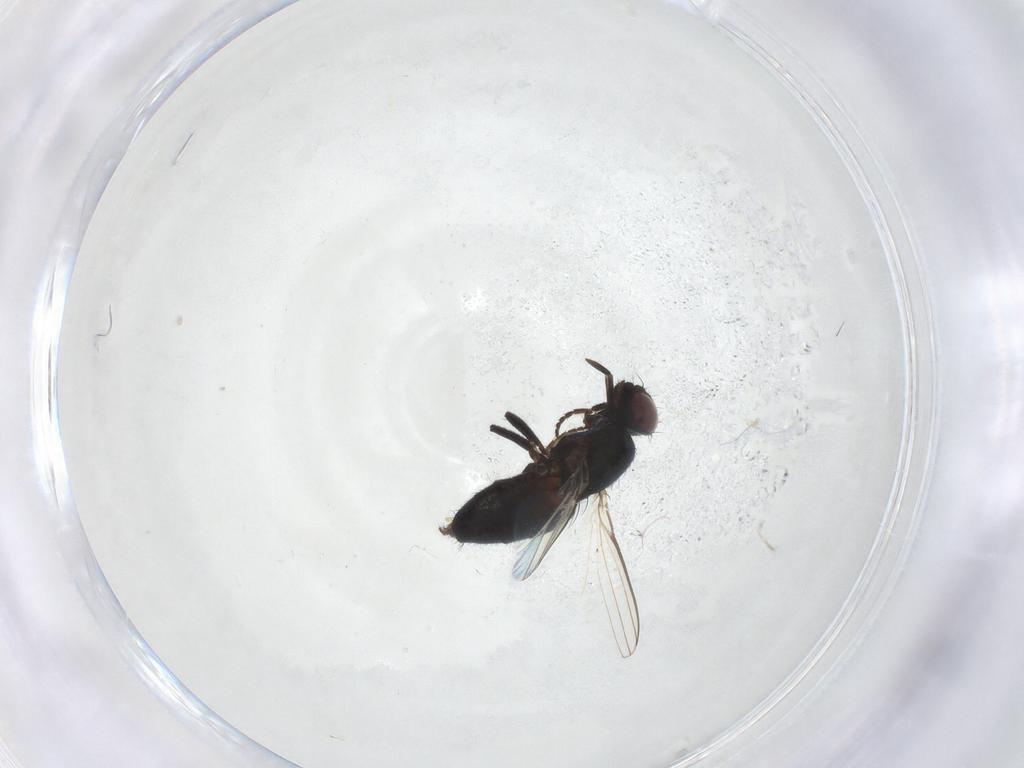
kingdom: Animalia
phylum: Arthropoda
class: Insecta
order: Diptera
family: Milichiidae
